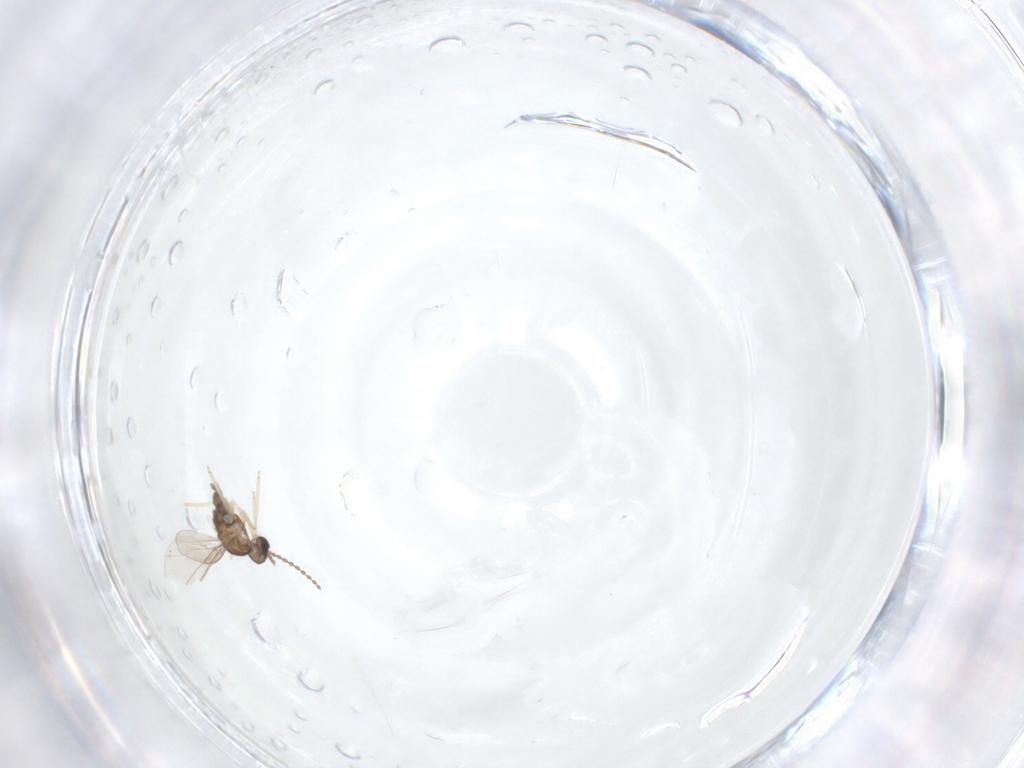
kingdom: Animalia
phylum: Arthropoda
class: Insecta
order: Diptera
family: Cecidomyiidae
